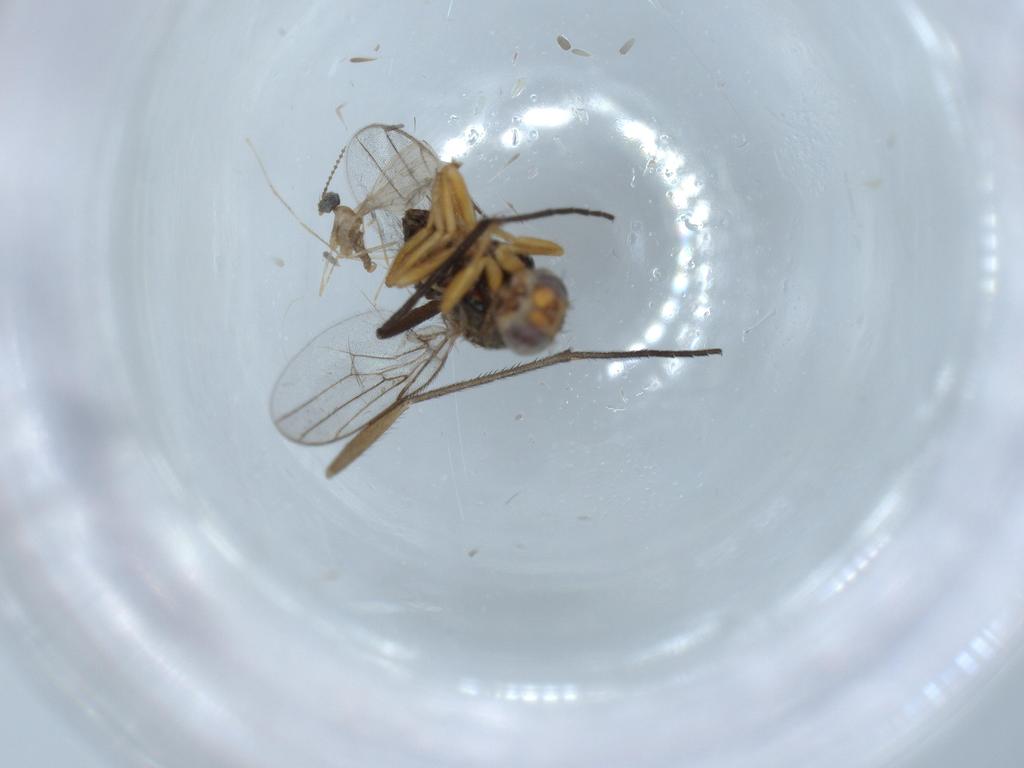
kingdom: Animalia
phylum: Arthropoda
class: Insecta
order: Diptera
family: Chloropidae
